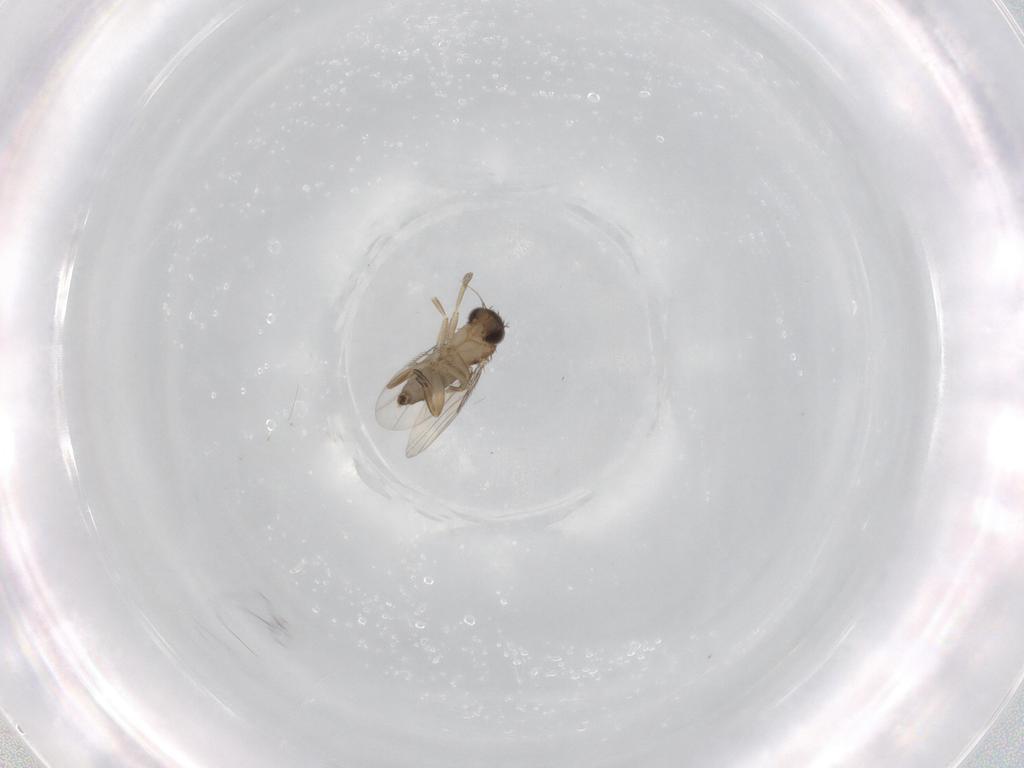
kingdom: Animalia
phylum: Arthropoda
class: Insecta
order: Diptera
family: Phoridae
